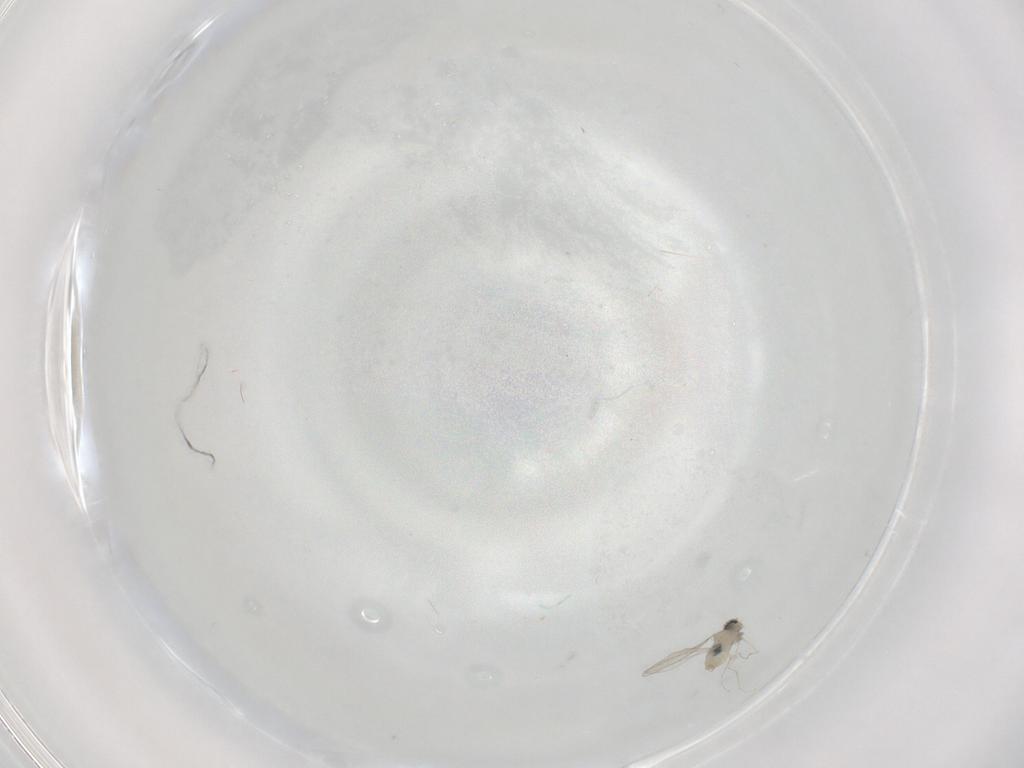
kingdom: Animalia
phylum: Arthropoda
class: Insecta
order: Diptera
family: Cecidomyiidae
